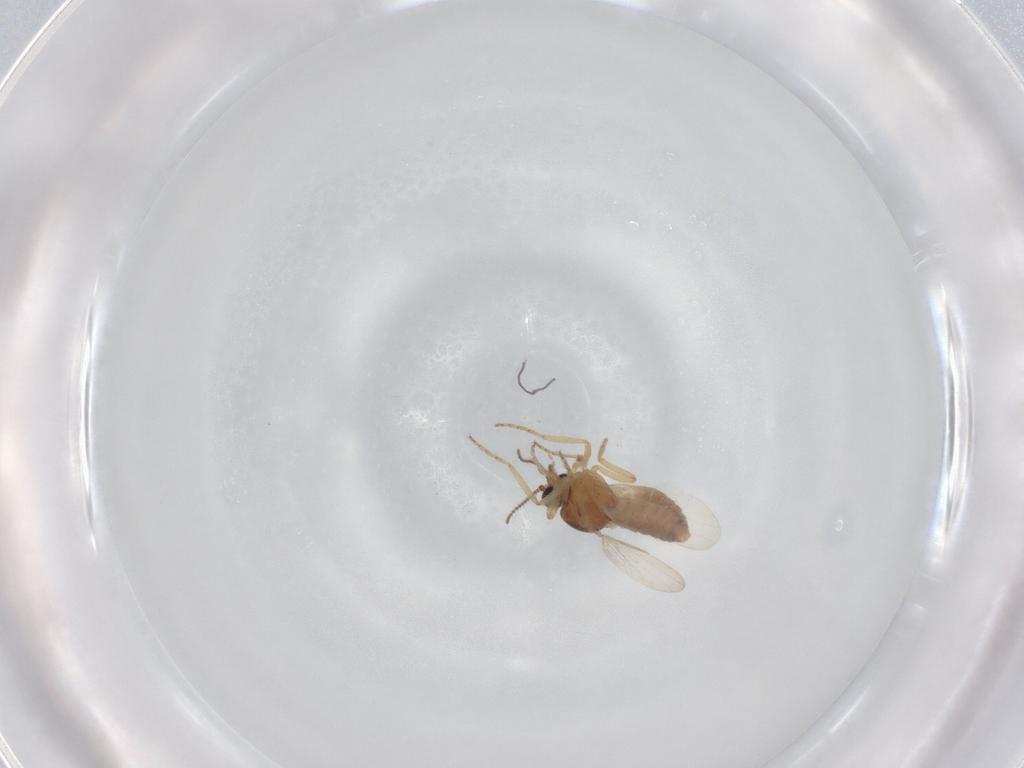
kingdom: Animalia
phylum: Arthropoda
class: Insecta
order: Diptera
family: Ceratopogonidae
